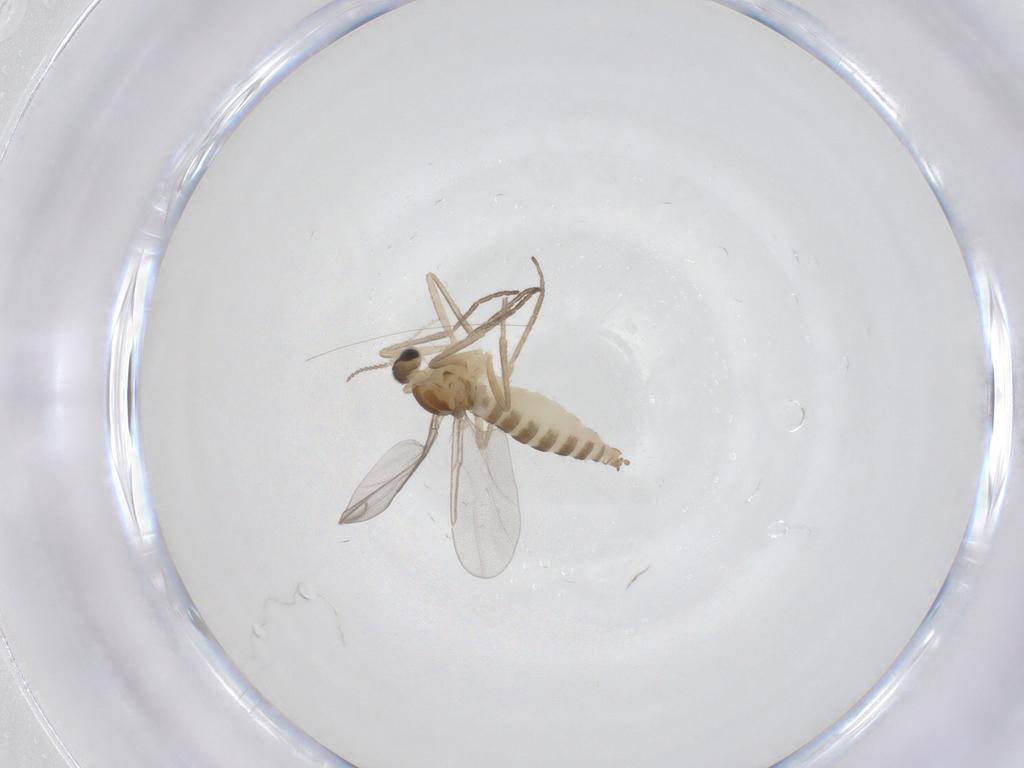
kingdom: Animalia
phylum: Arthropoda
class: Insecta
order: Diptera
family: Cecidomyiidae
